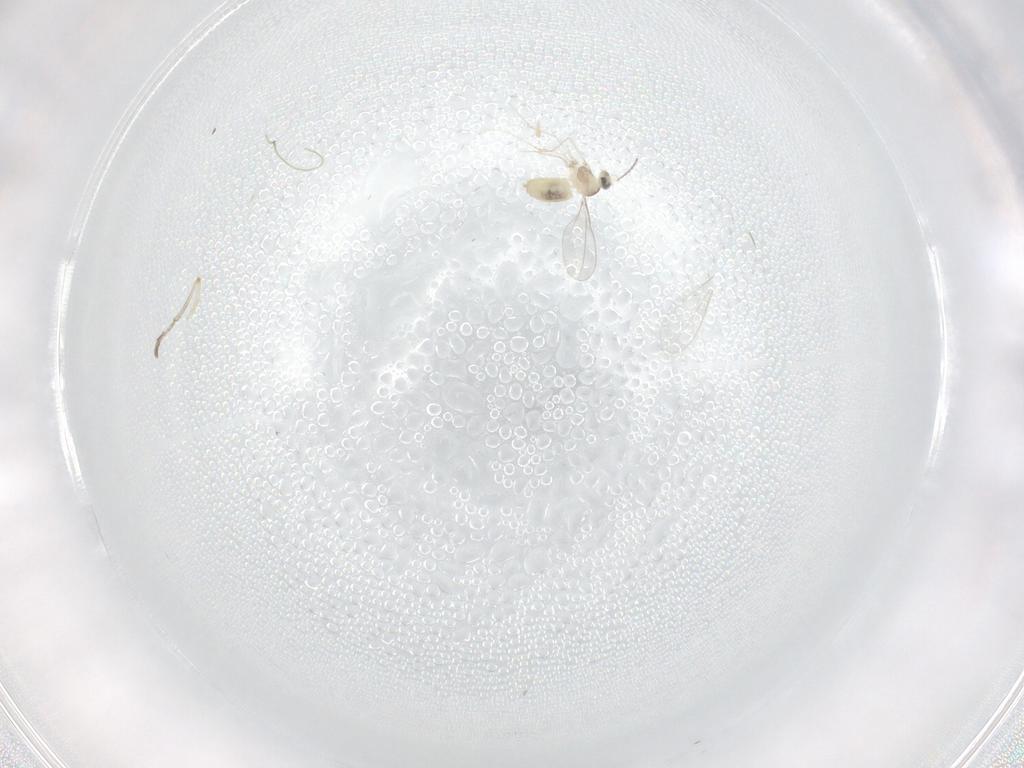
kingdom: Animalia
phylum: Arthropoda
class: Insecta
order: Diptera
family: Cecidomyiidae
